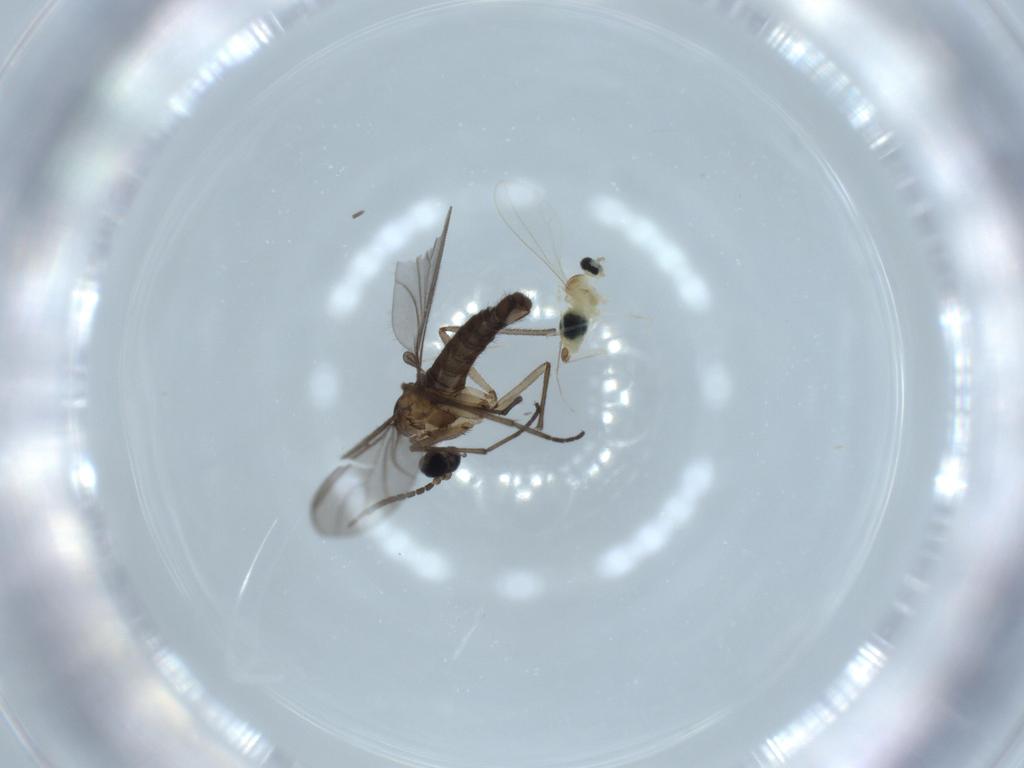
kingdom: Animalia
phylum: Arthropoda
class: Insecta
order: Diptera
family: Sciaridae
